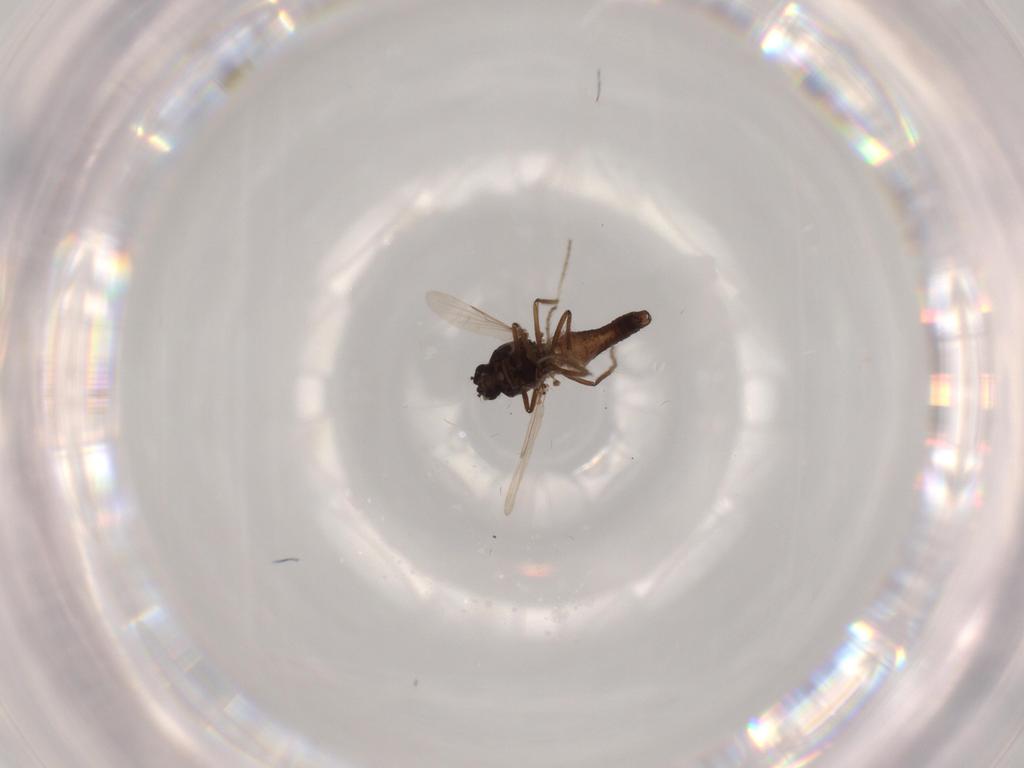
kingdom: Animalia
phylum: Arthropoda
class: Insecta
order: Diptera
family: Chironomidae
